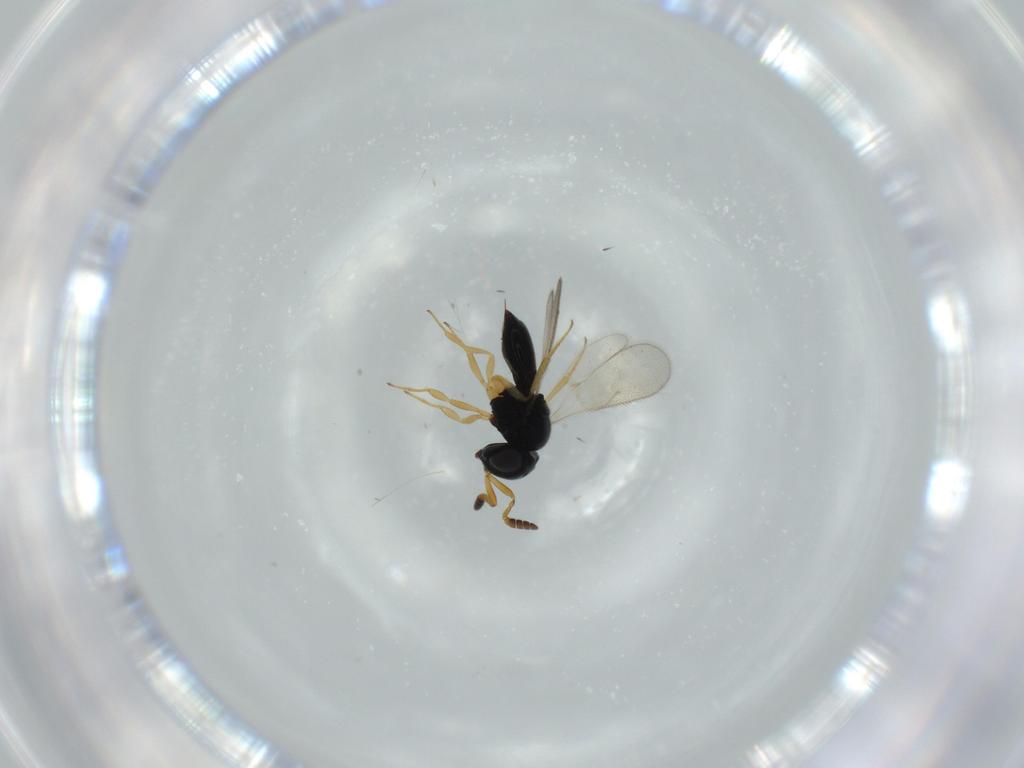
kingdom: Animalia
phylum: Arthropoda
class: Insecta
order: Hymenoptera
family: Scelionidae
